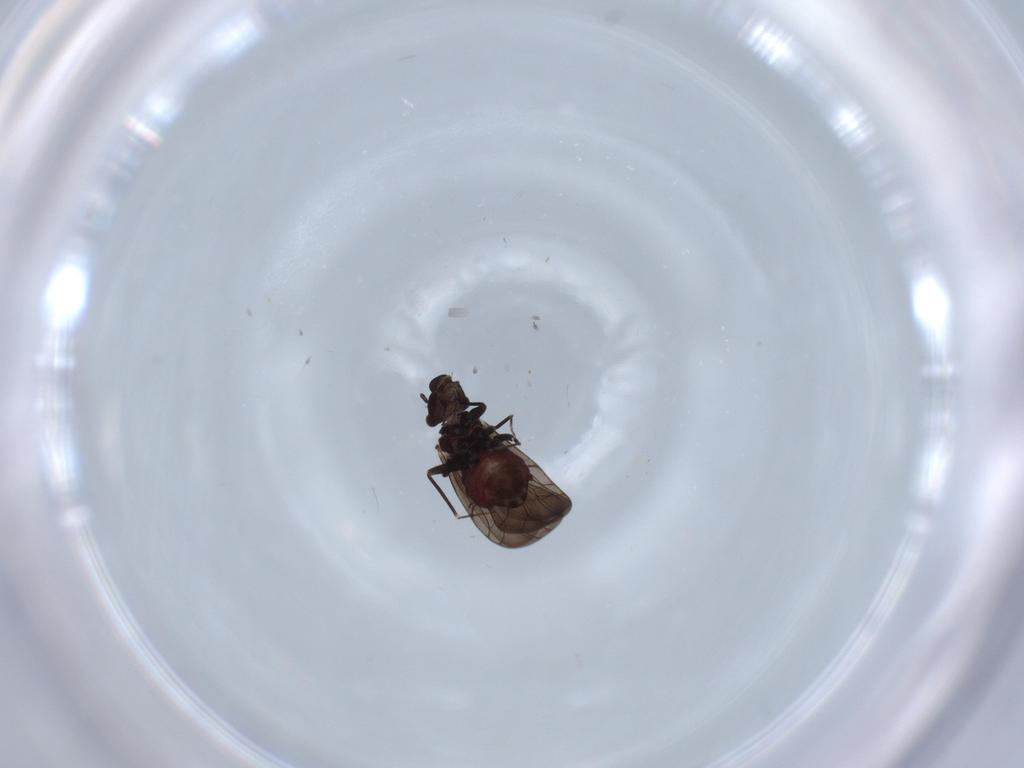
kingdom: Animalia
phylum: Arthropoda
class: Insecta
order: Psocodea
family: Lepidopsocidae
